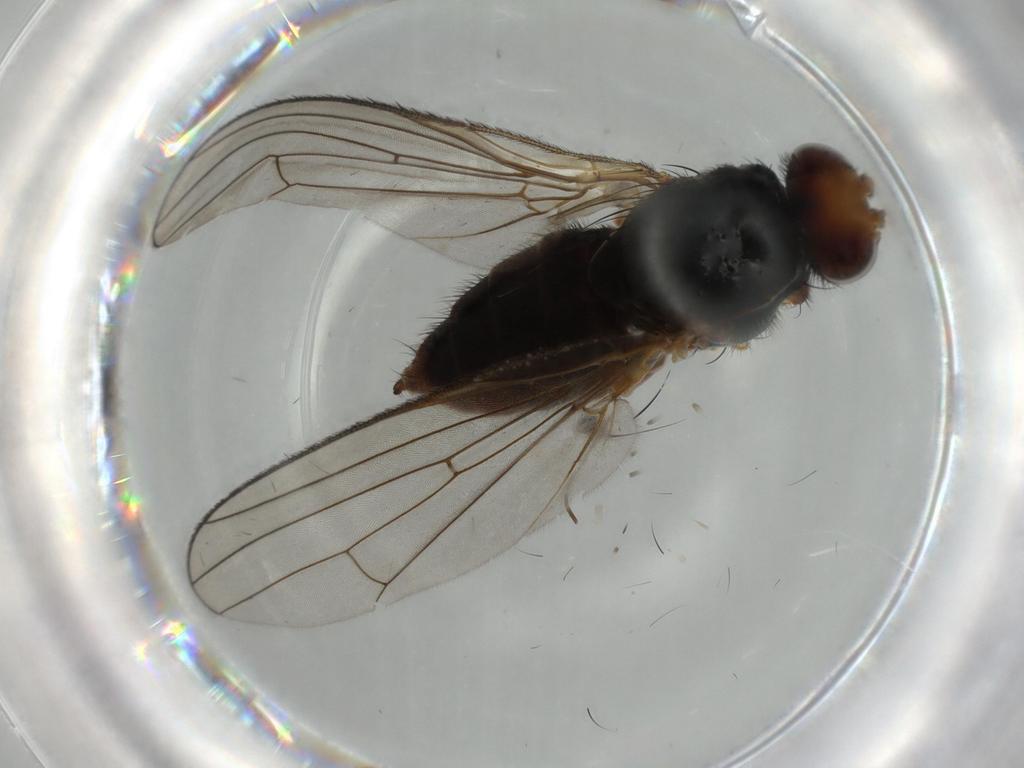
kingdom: Animalia
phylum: Arthropoda
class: Insecta
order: Diptera
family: Heleomyzidae
